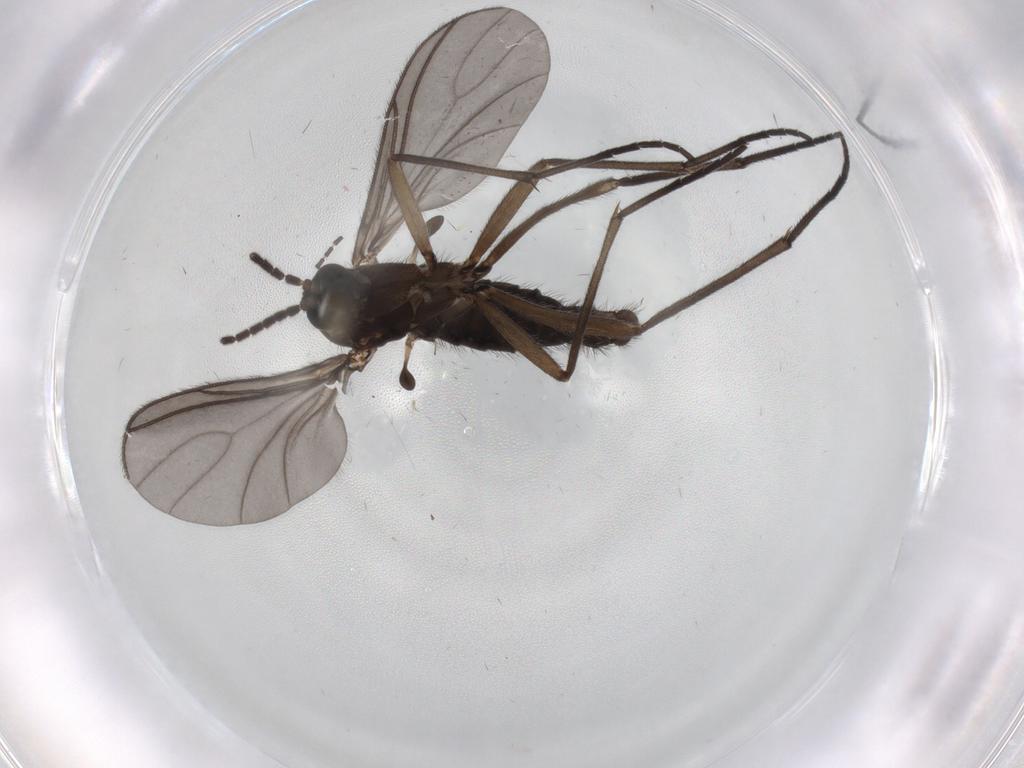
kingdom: Animalia
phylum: Arthropoda
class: Insecta
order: Diptera
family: Sciaridae
